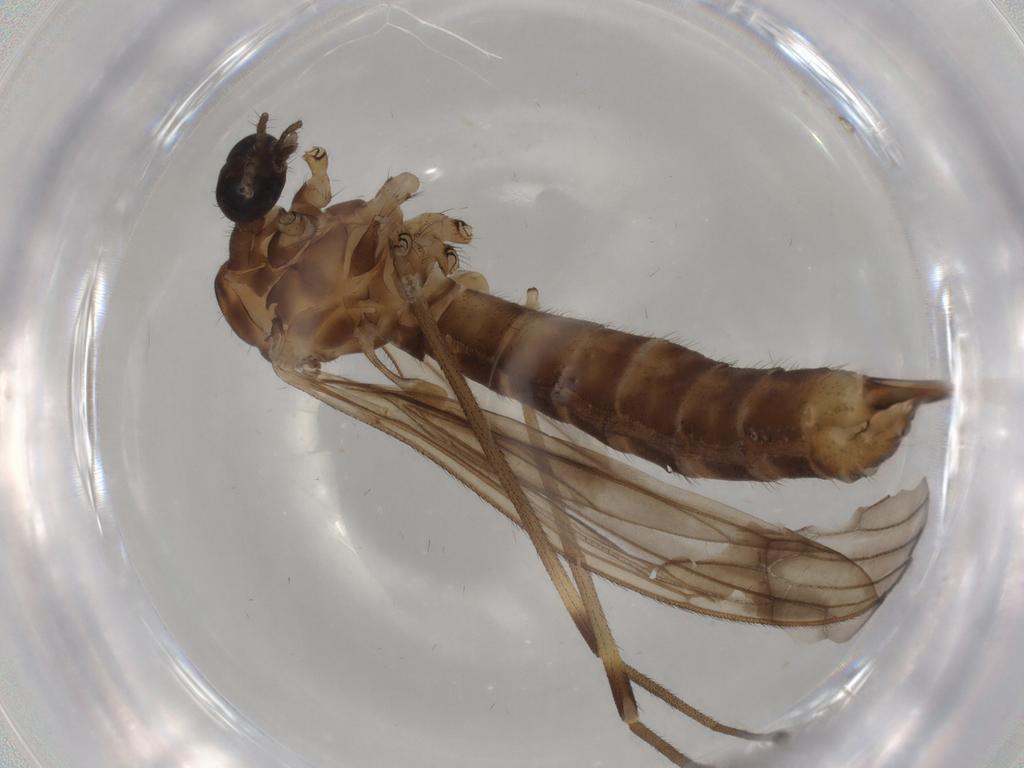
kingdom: Animalia
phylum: Arthropoda
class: Insecta
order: Diptera
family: Limoniidae
